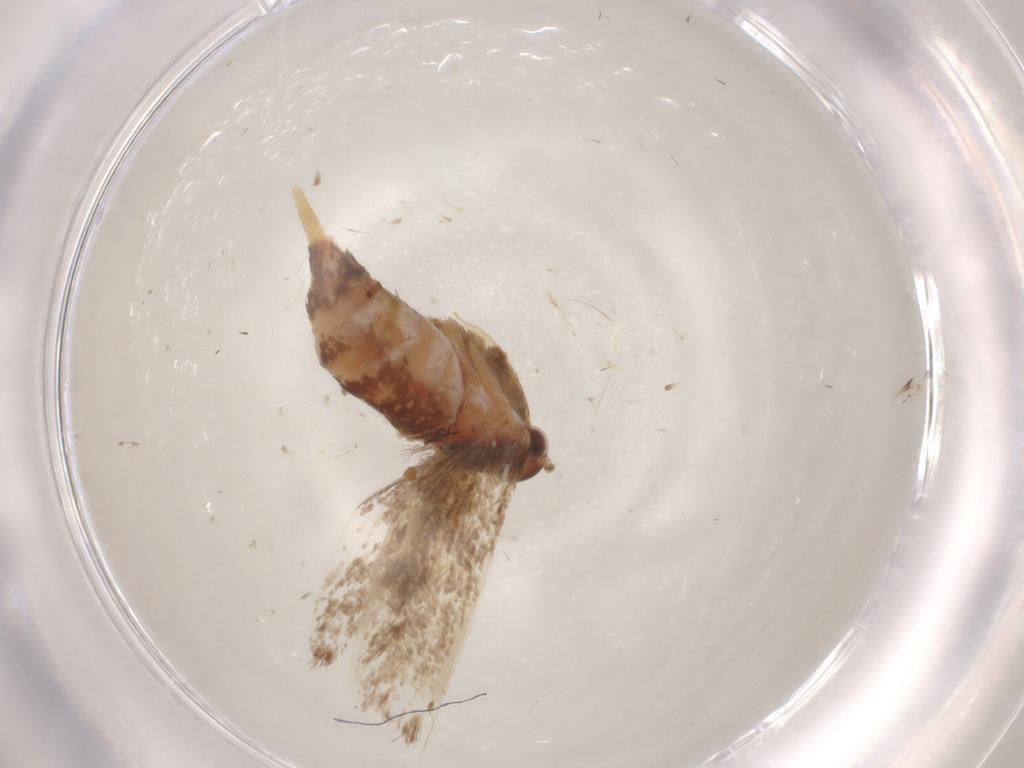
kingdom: Animalia
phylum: Arthropoda
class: Insecta
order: Lepidoptera
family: Oecophoridae
